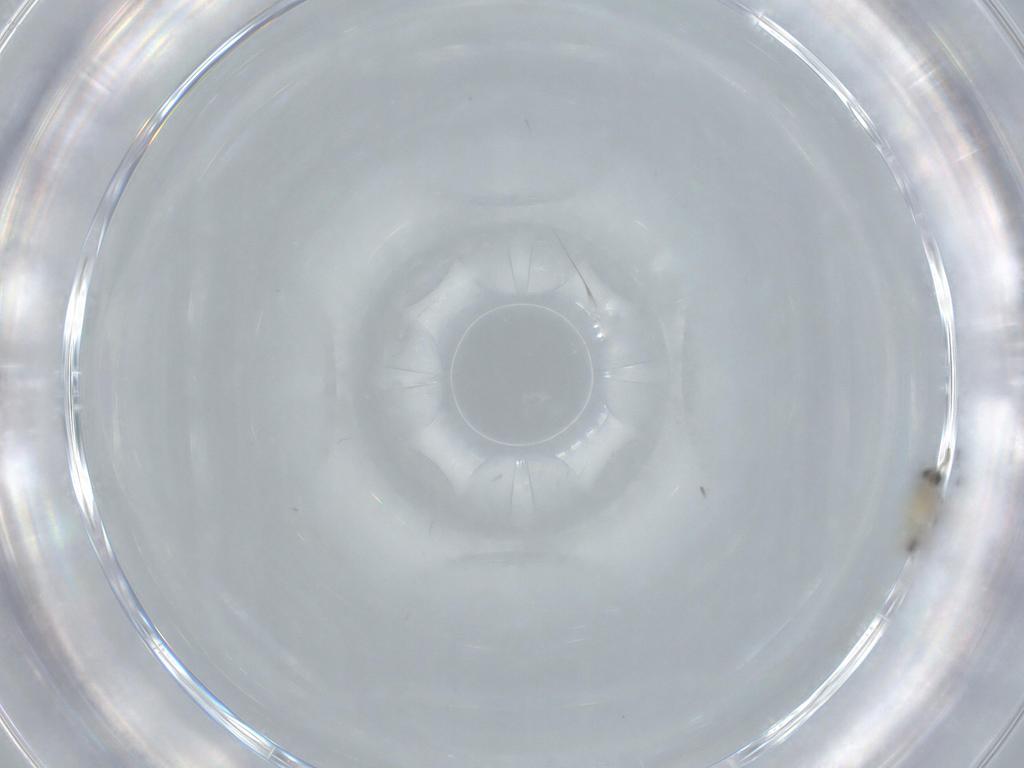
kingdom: Animalia
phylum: Arthropoda
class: Insecta
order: Diptera
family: Cecidomyiidae
